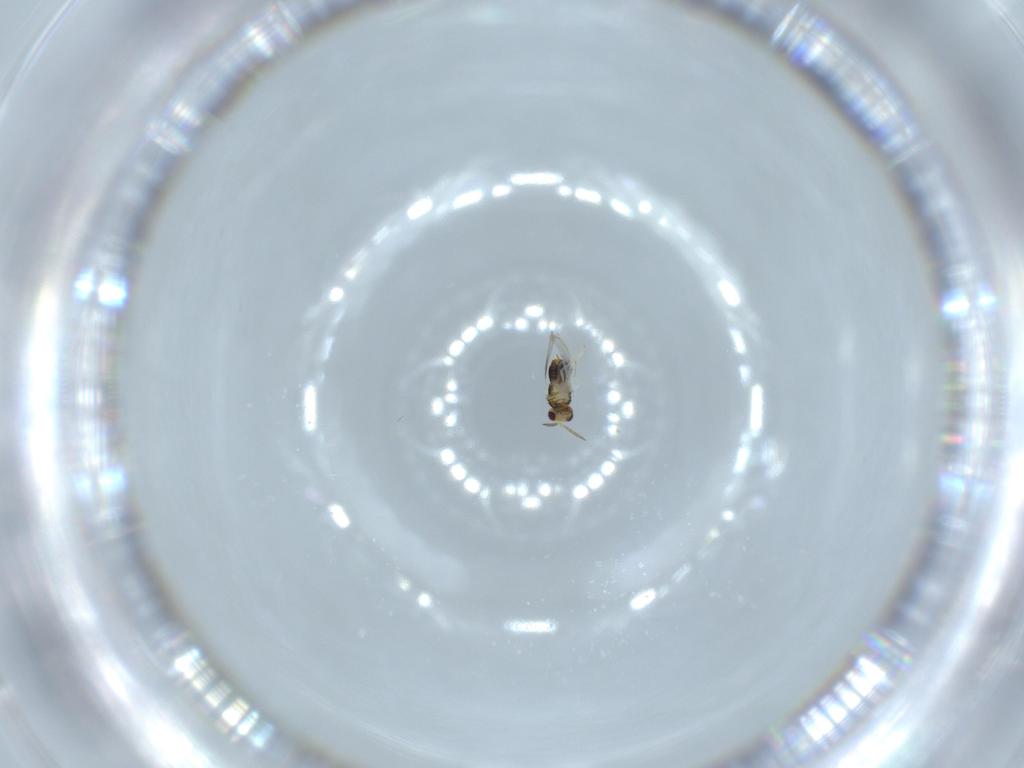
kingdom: Animalia
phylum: Arthropoda
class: Insecta
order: Hymenoptera
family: Aphelinidae
